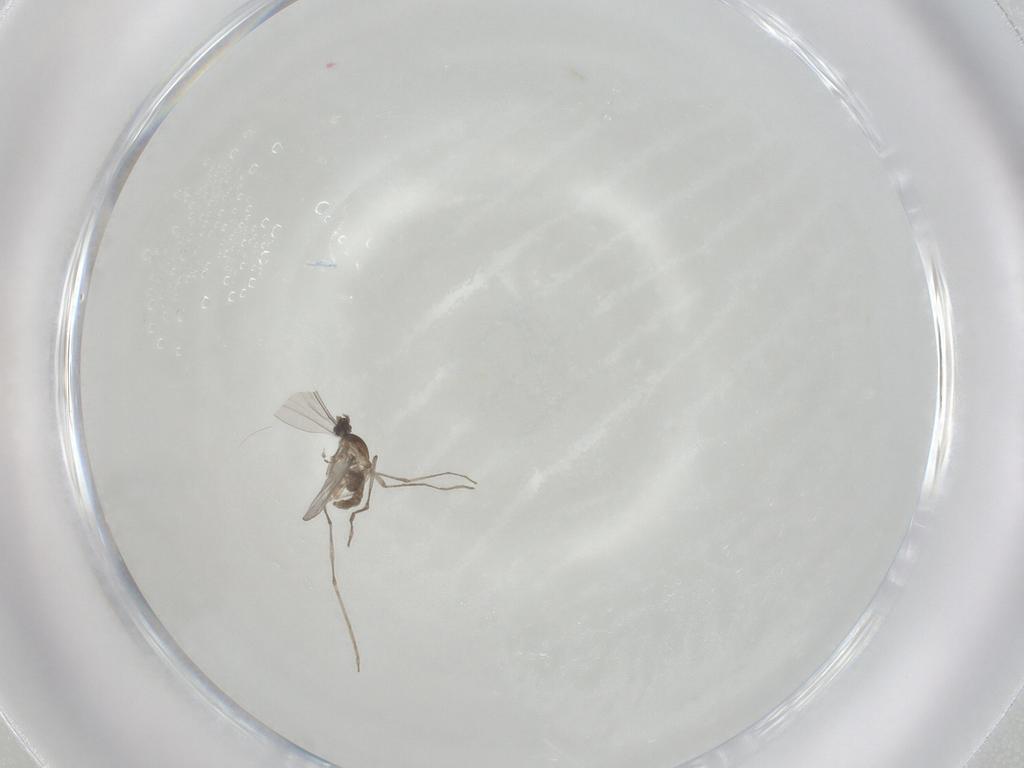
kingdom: Animalia
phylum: Arthropoda
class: Insecta
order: Diptera
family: Cecidomyiidae
